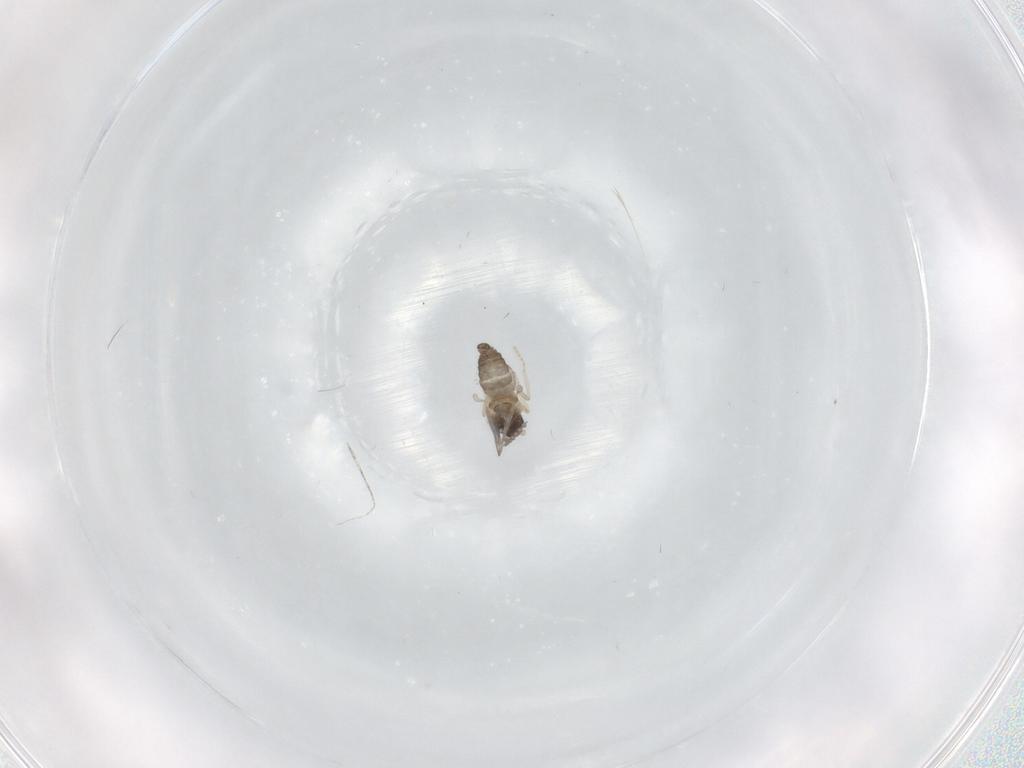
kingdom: Animalia
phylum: Arthropoda
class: Insecta
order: Diptera
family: Cecidomyiidae
